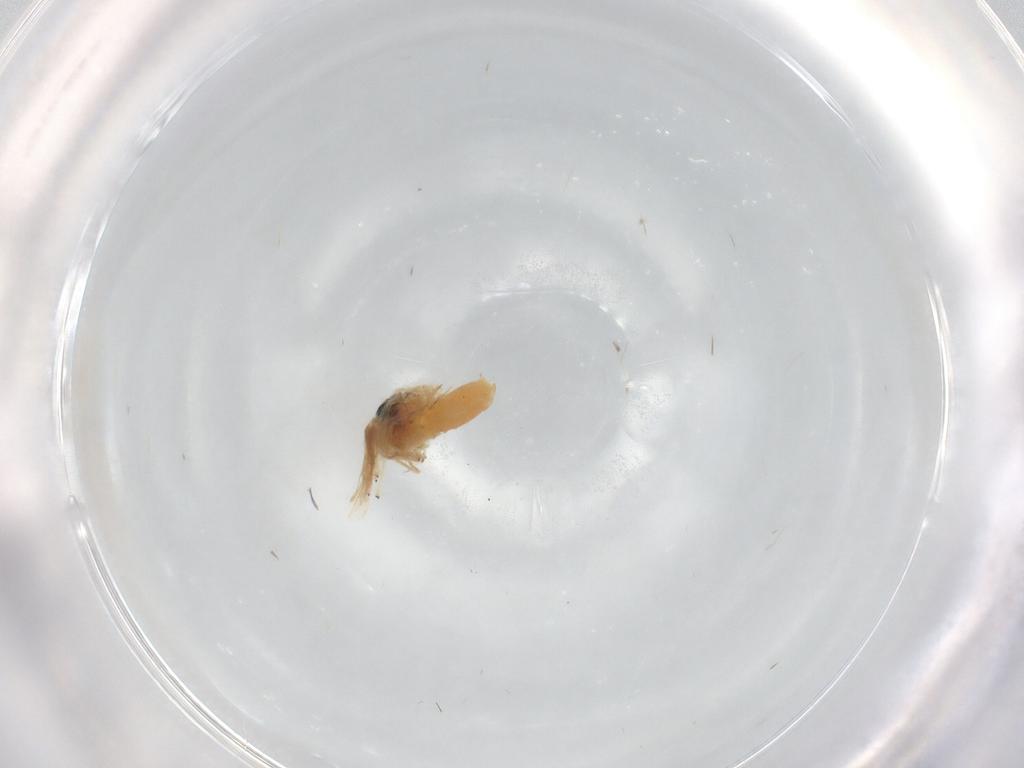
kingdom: Animalia
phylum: Arthropoda
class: Insecta
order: Diptera
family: Chironomidae
